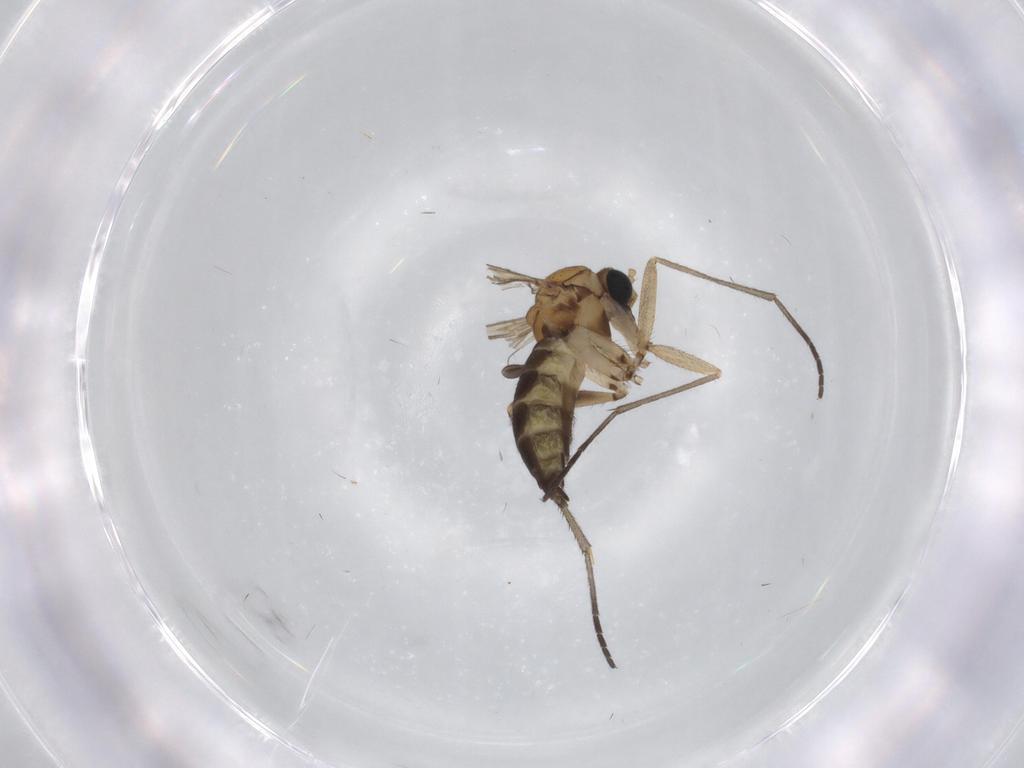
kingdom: Animalia
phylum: Arthropoda
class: Insecta
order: Diptera
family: Sciaridae
